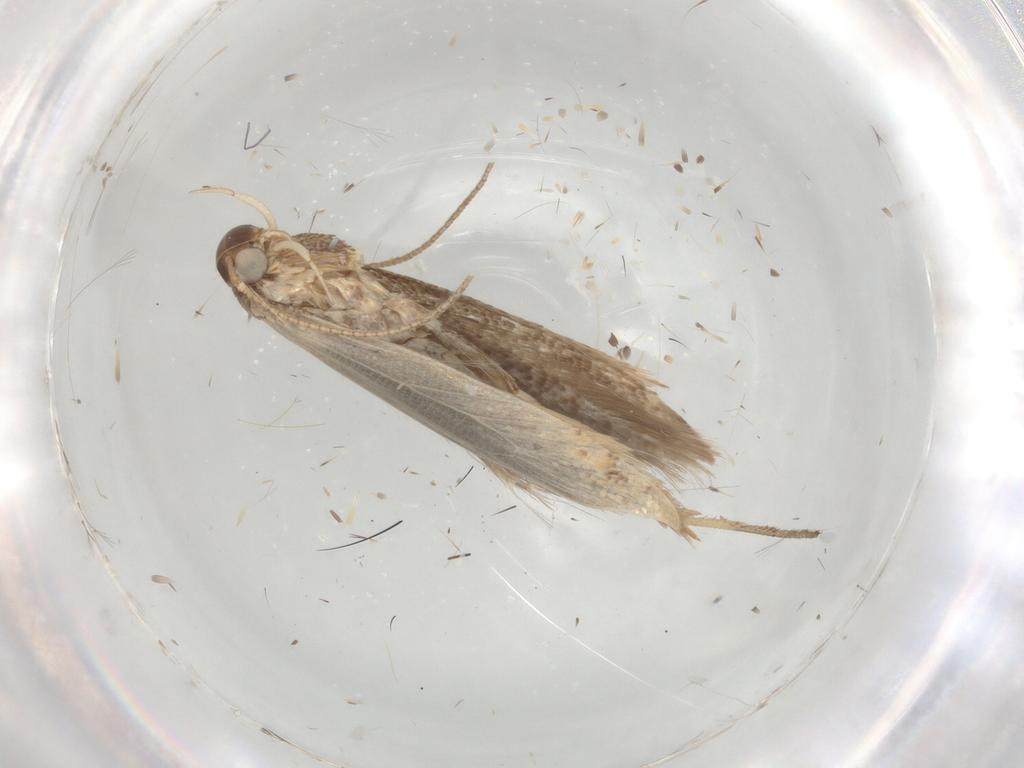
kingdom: Animalia
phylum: Arthropoda
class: Insecta
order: Lepidoptera
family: Gelechiidae
